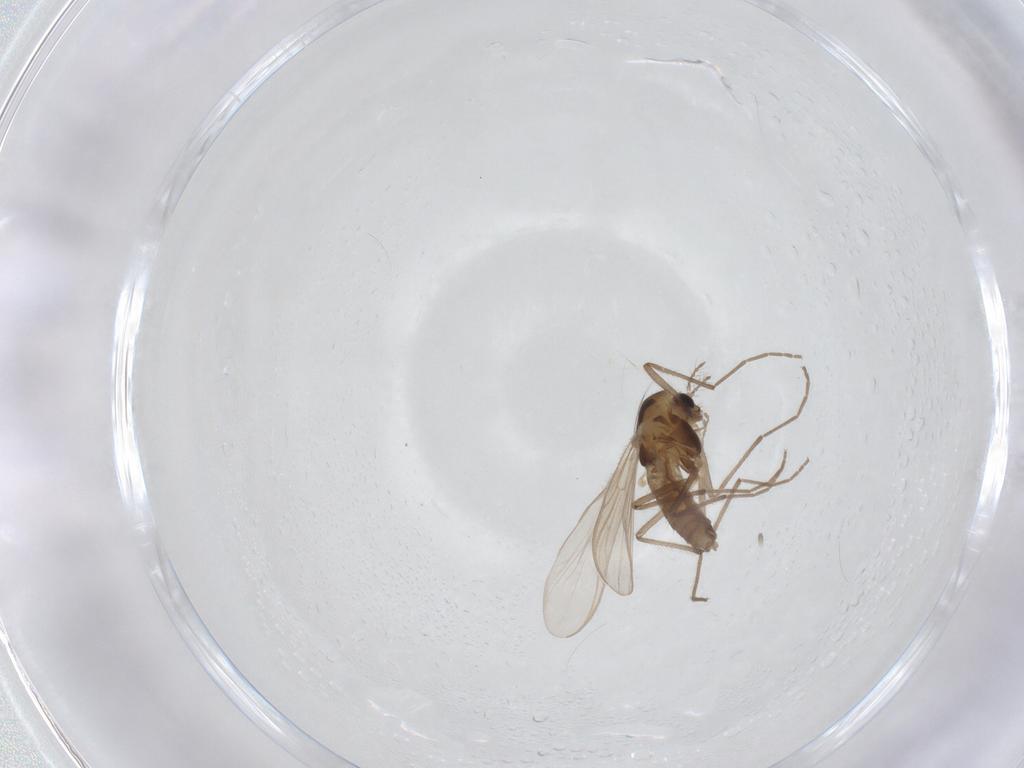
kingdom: Animalia
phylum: Arthropoda
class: Insecta
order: Diptera
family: Chironomidae
